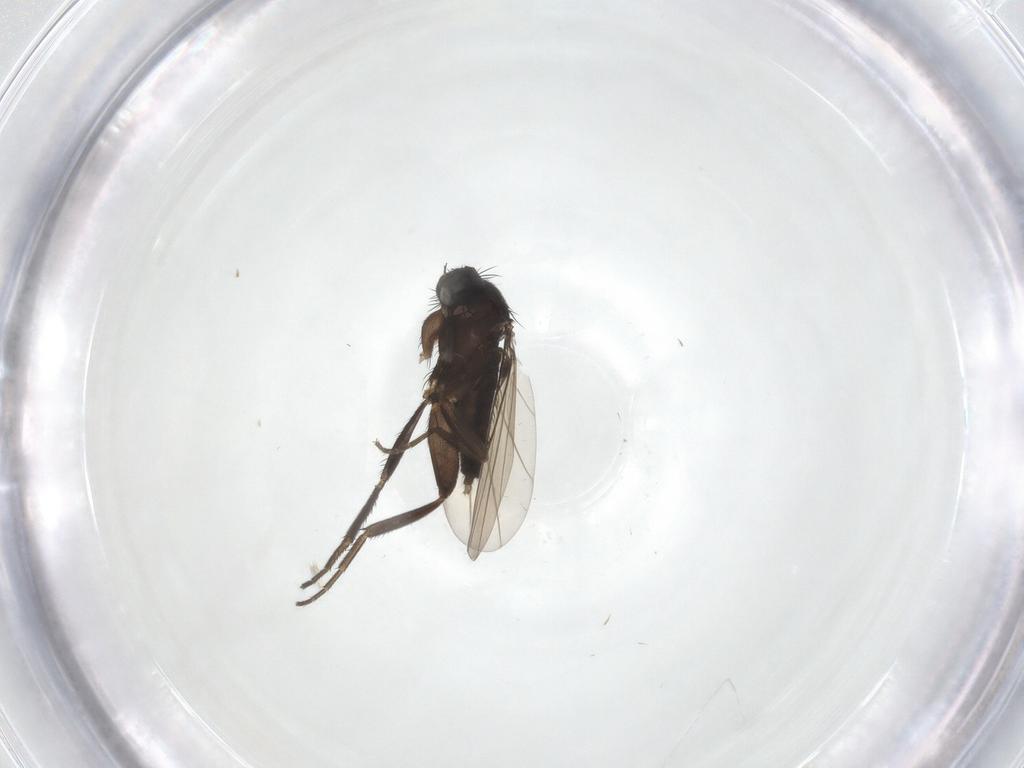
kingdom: Animalia
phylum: Arthropoda
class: Insecta
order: Diptera
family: Phoridae
